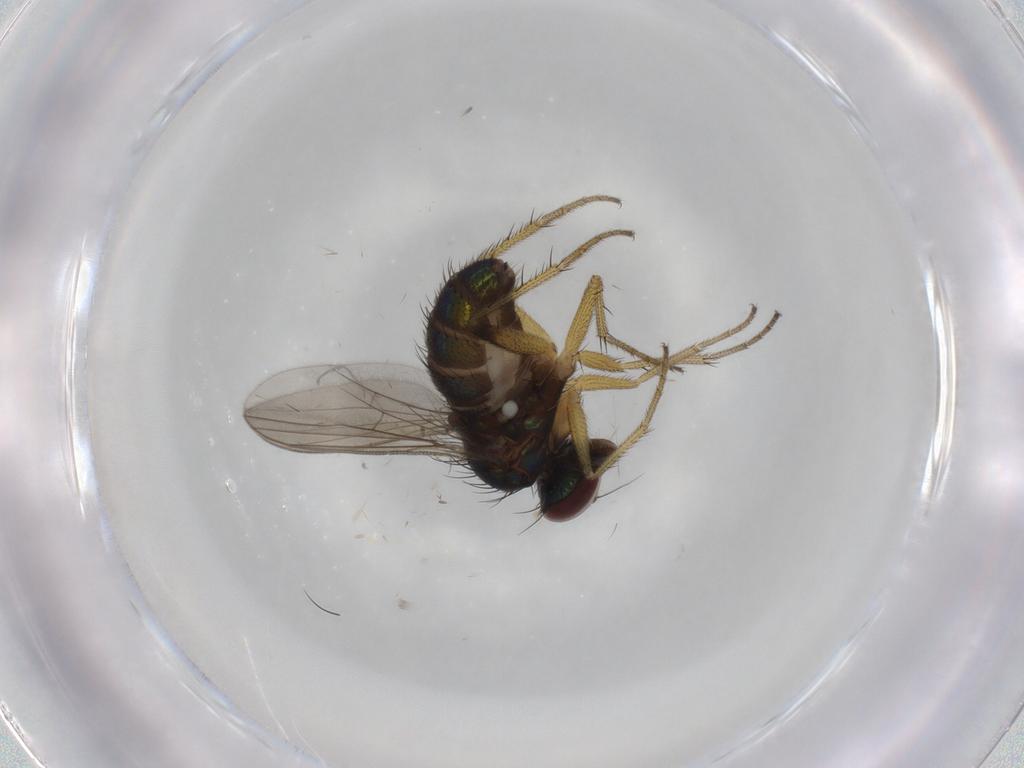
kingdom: Animalia
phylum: Arthropoda
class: Insecta
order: Diptera
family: Dolichopodidae
